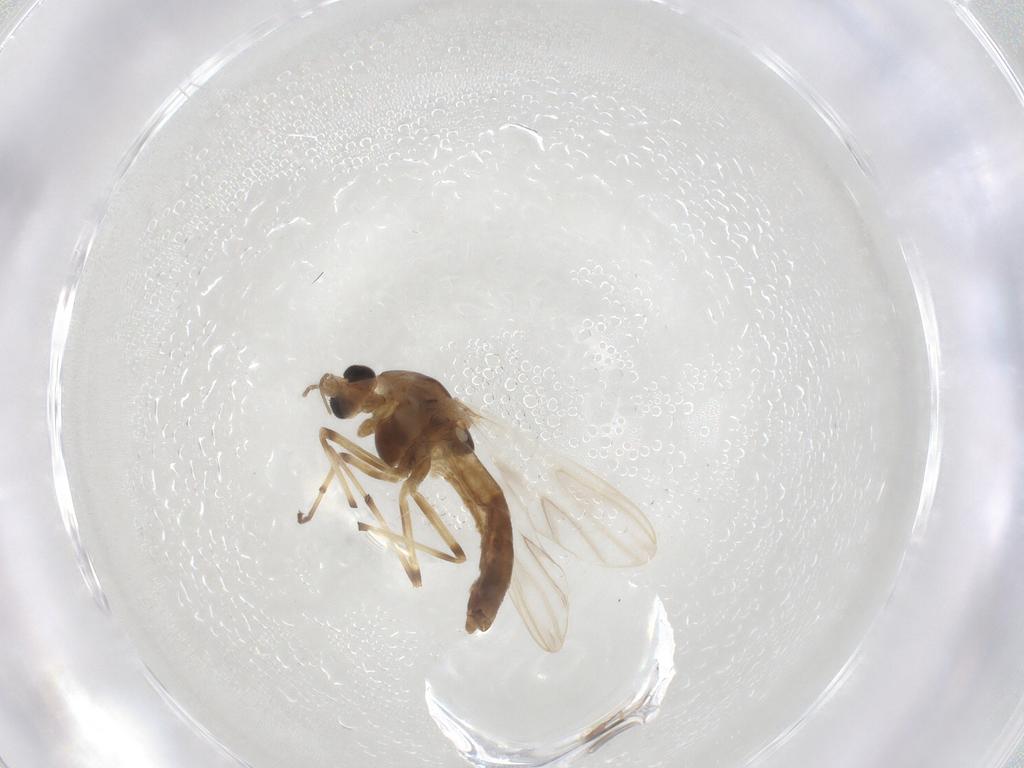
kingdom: Animalia
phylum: Arthropoda
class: Insecta
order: Diptera
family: Chironomidae
